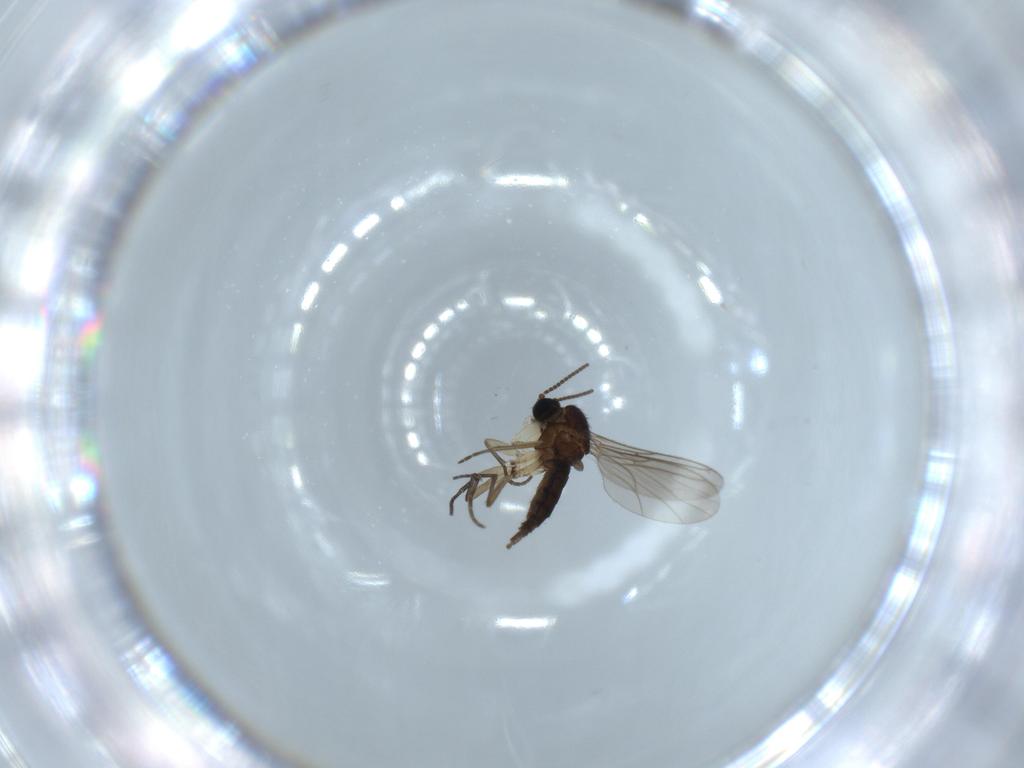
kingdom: Animalia
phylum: Arthropoda
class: Insecta
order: Diptera
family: Sciaridae
